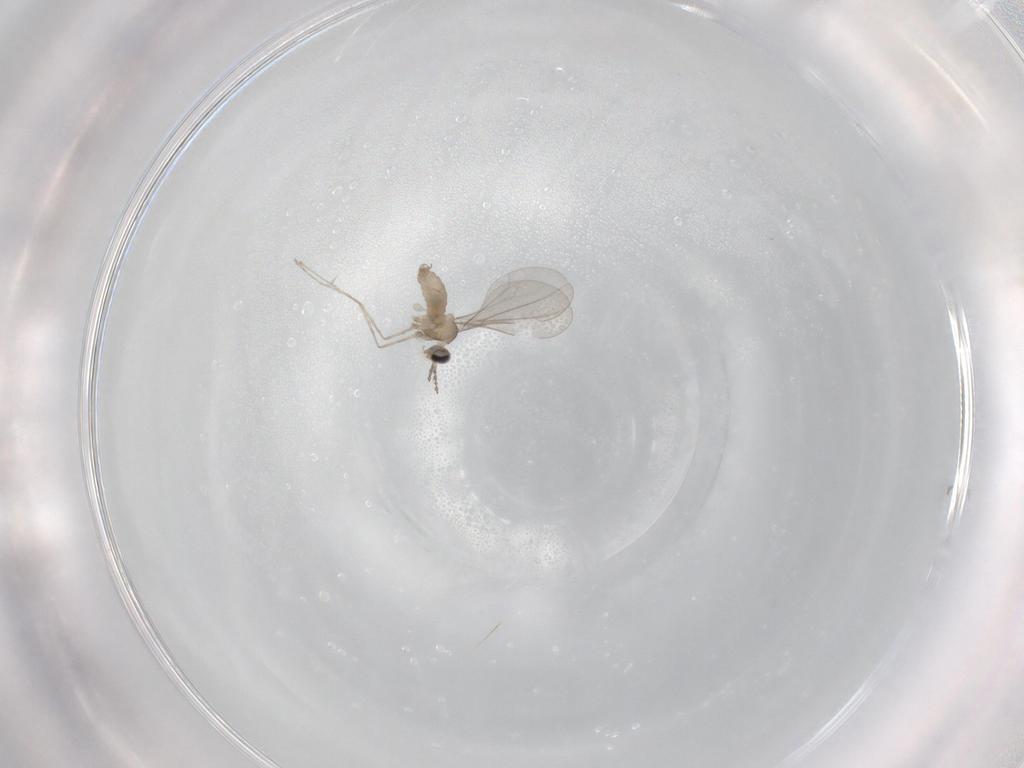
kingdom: Animalia
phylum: Arthropoda
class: Insecta
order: Diptera
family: Cecidomyiidae
